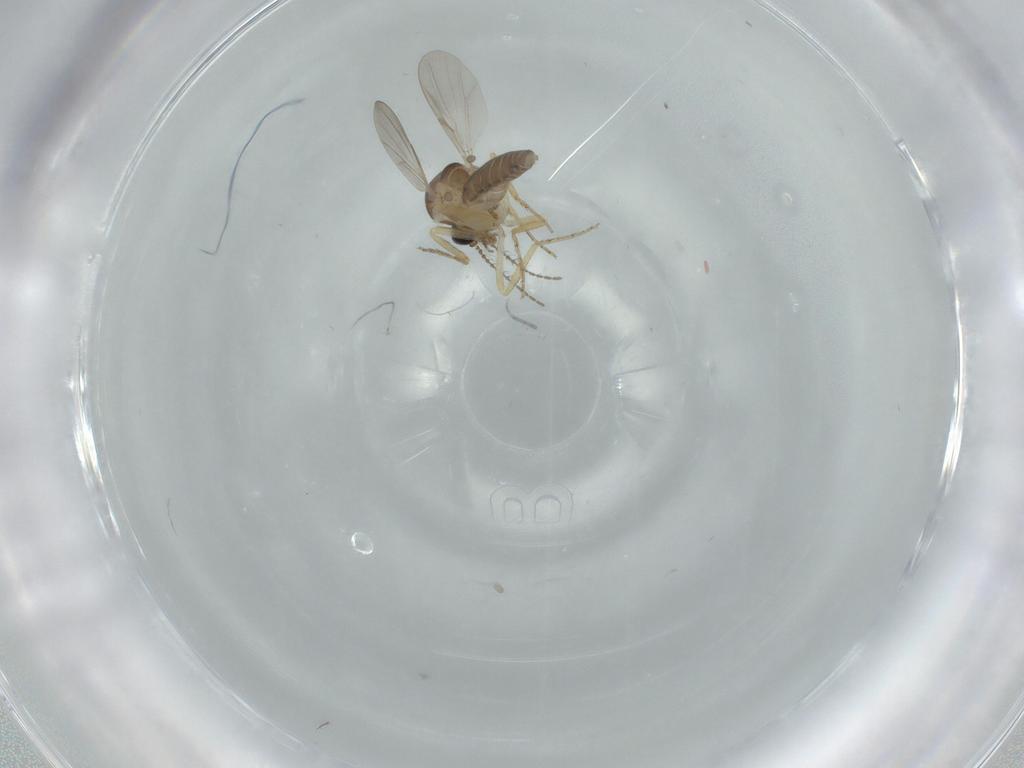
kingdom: Animalia
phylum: Arthropoda
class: Insecta
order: Diptera
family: Ceratopogonidae
